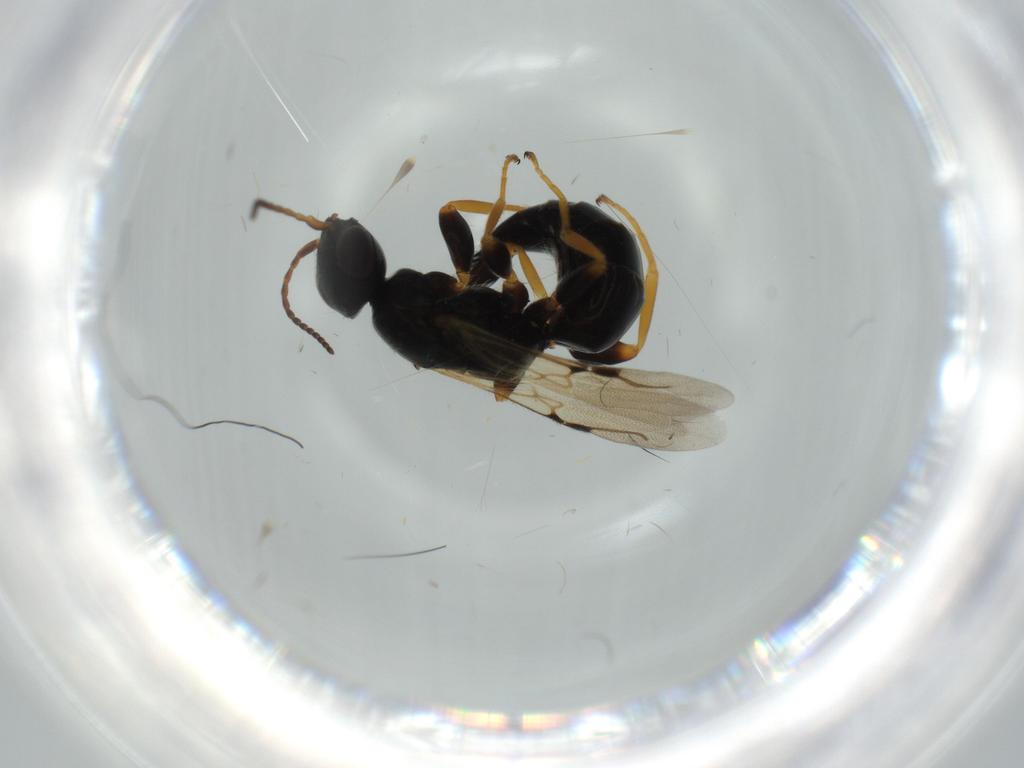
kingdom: Animalia
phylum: Arthropoda
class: Insecta
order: Hymenoptera
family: Bethylidae
